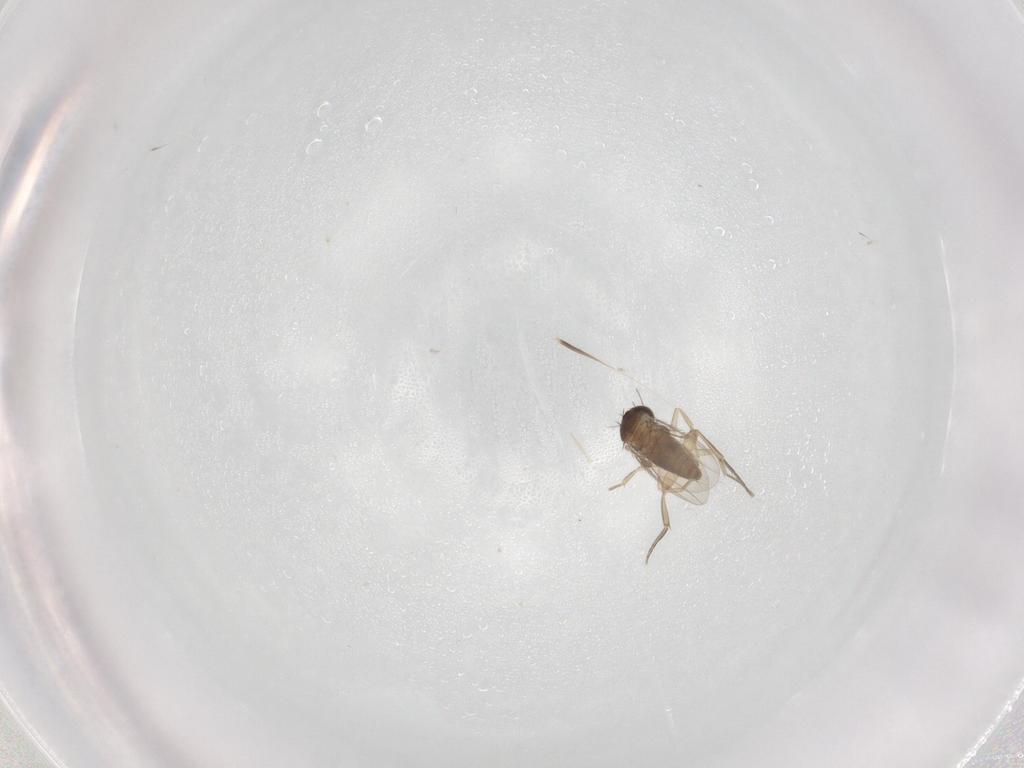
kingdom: Animalia
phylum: Arthropoda
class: Insecta
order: Diptera
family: Phoridae
